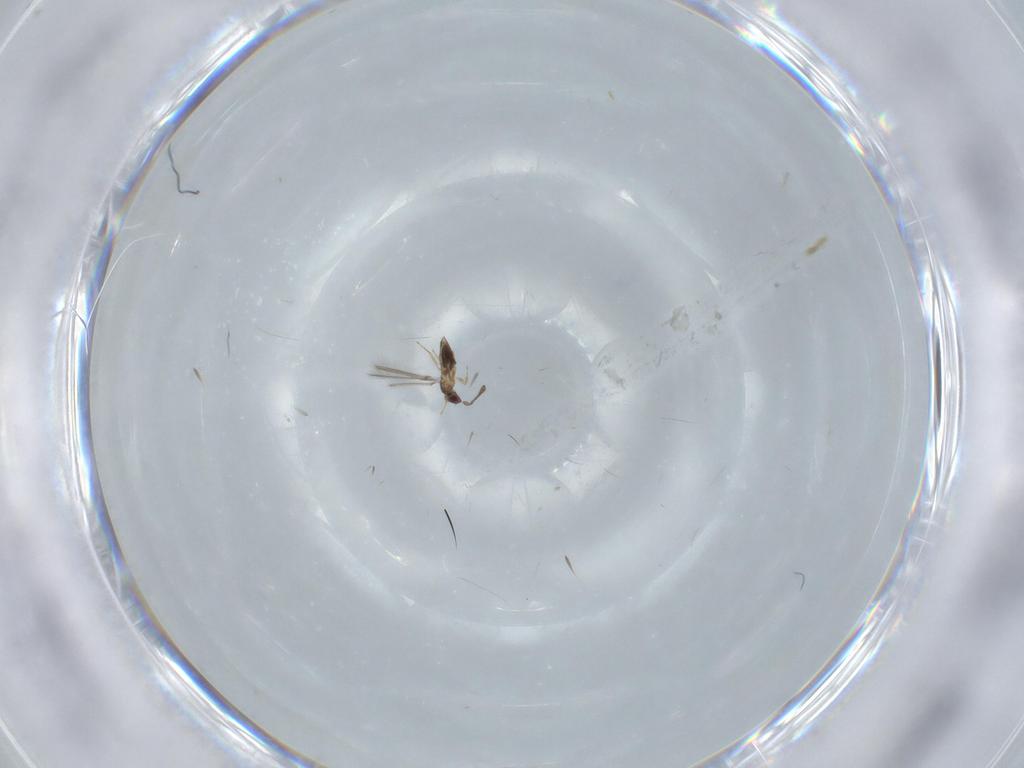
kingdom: Animalia
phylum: Arthropoda
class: Insecta
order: Hymenoptera
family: Mymaridae
